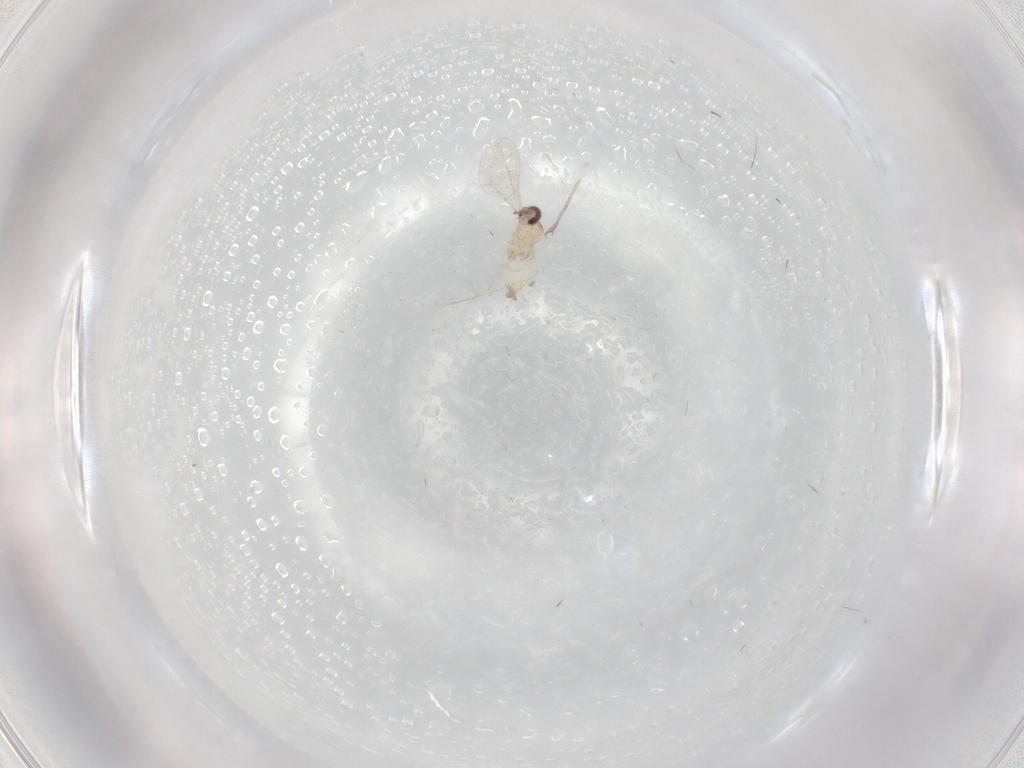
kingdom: Animalia
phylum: Arthropoda
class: Insecta
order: Diptera
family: Cecidomyiidae
